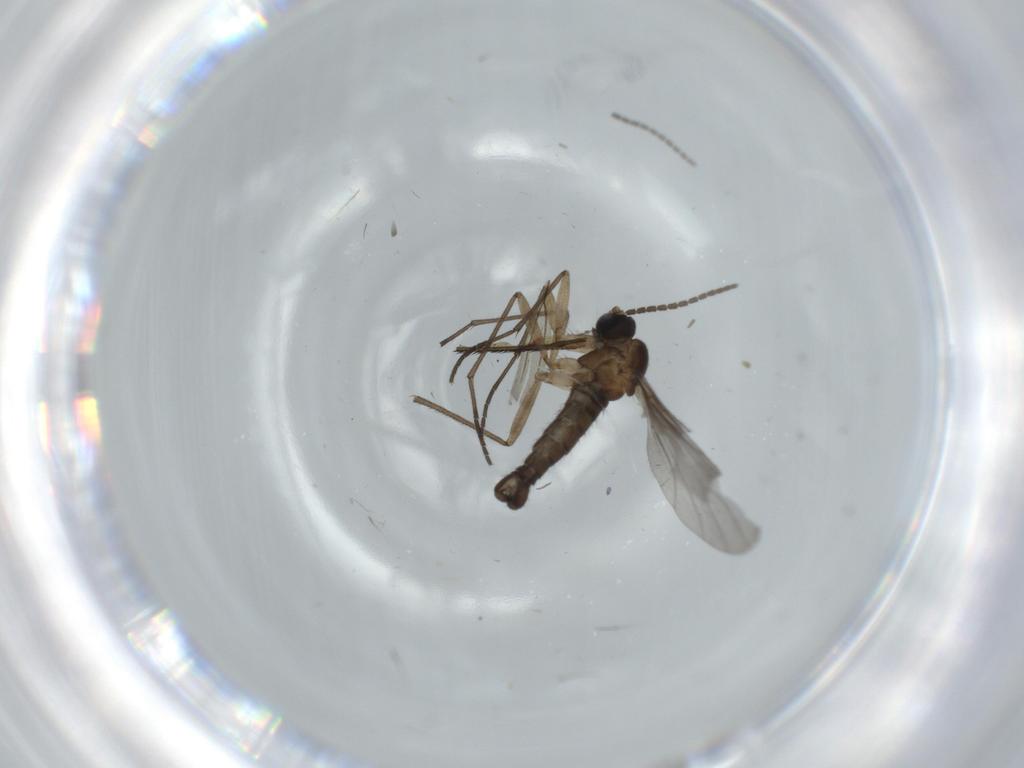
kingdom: Animalia
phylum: Arthropoda
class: Insecta
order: Diptera
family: Sciaridae
